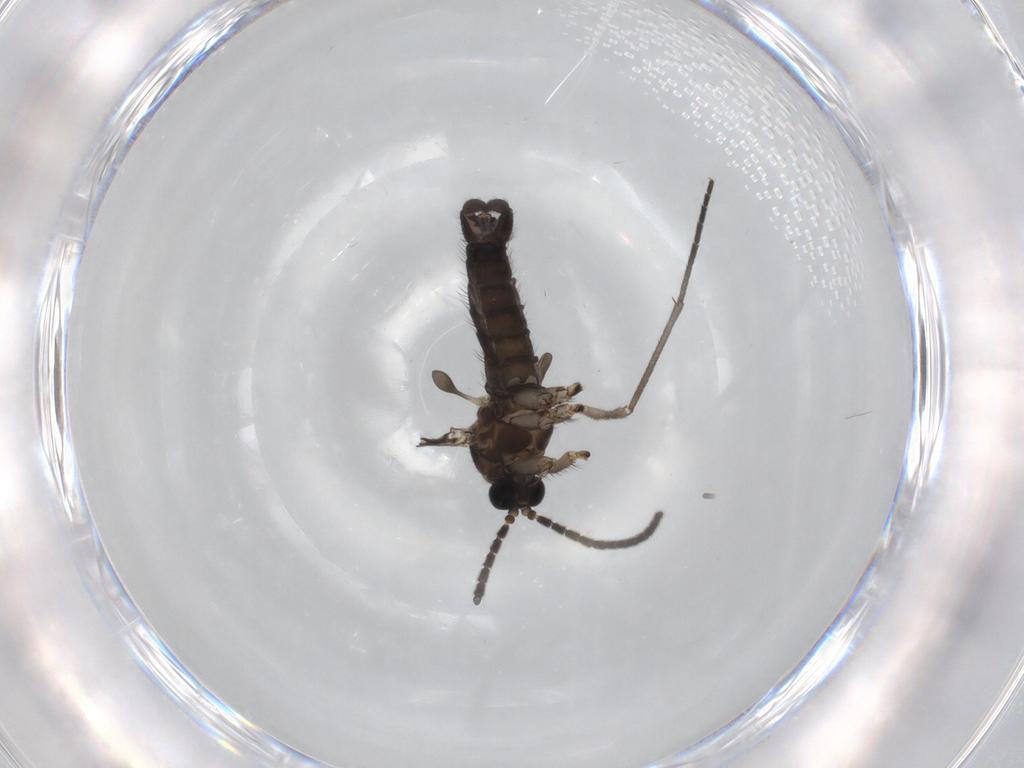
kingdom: Animalia
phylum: Arthropoda
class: Insecta
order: Diptera
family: Sciaridae
